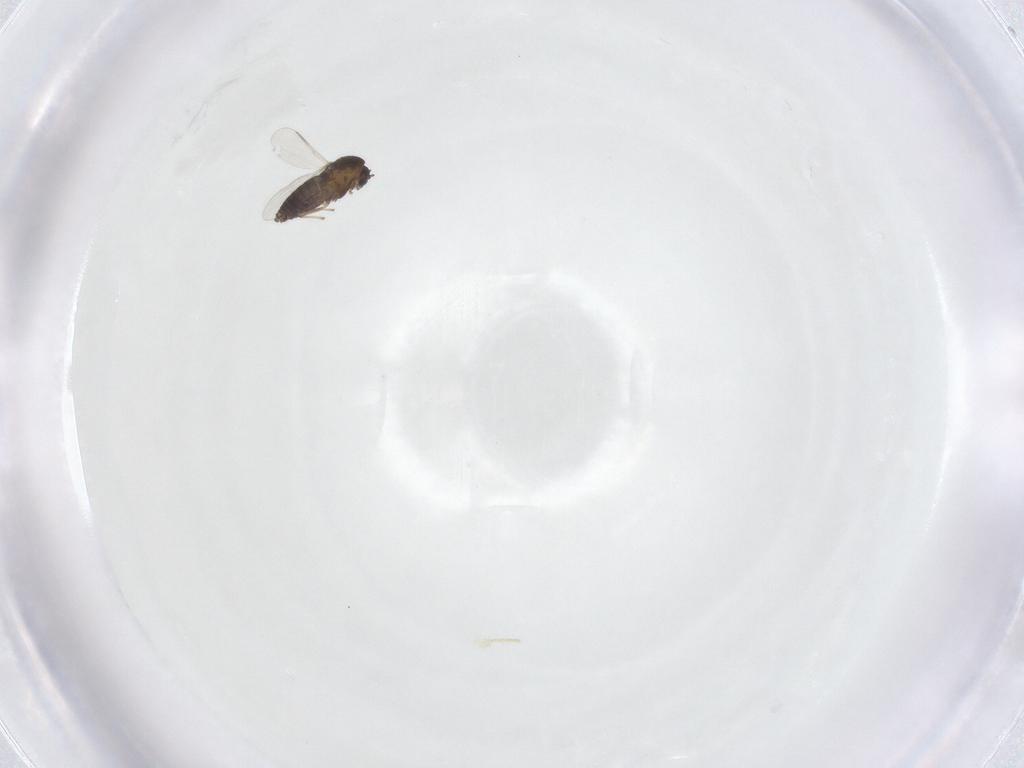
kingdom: Animalia
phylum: Arthropoda
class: Insecta
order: Diptera
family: Chironomidae
